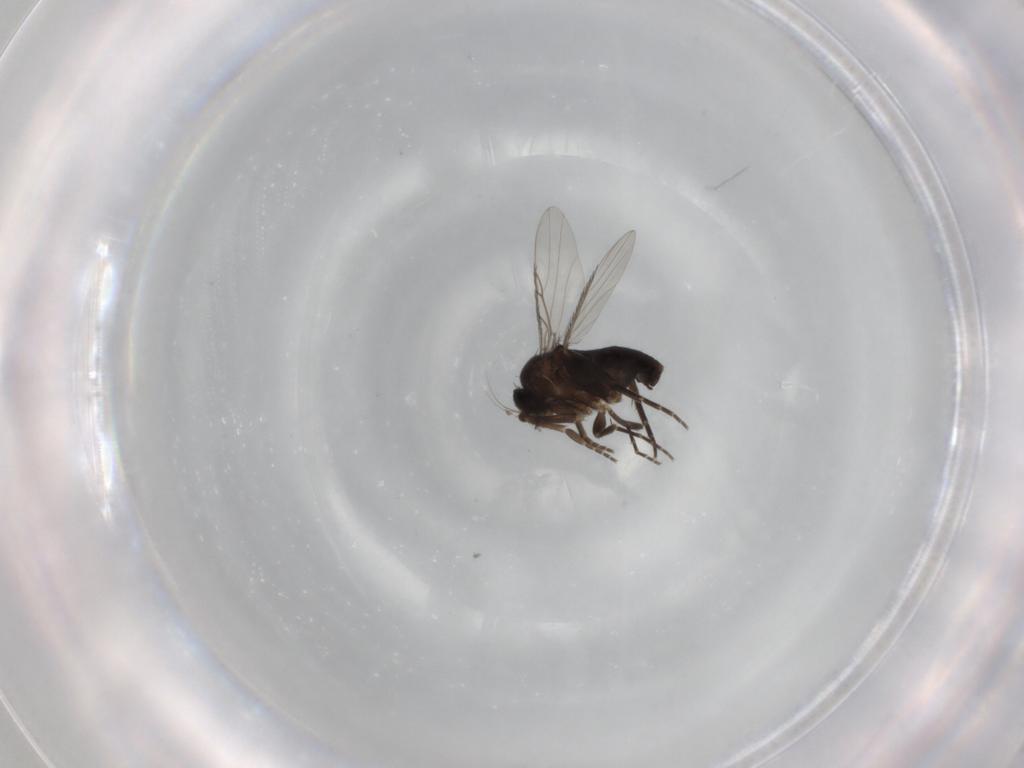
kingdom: Animalia
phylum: Arthropoda
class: Insecta
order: Diptera
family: Phoridae
